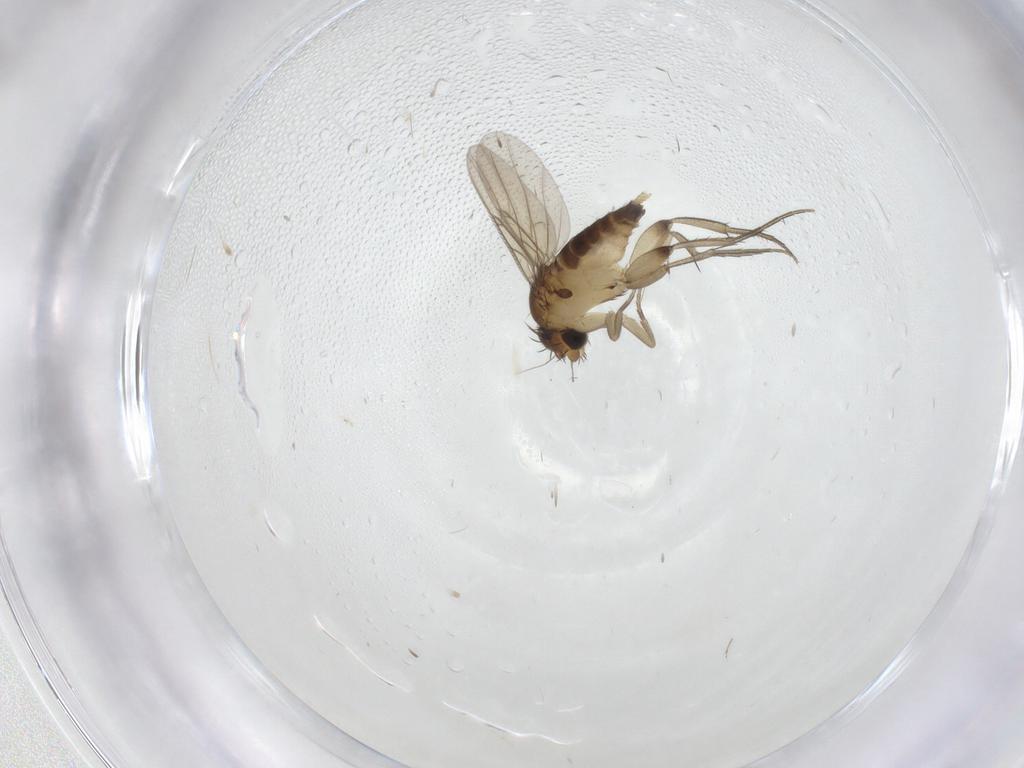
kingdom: Animalia
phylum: Arthropoda
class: Insecta
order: Diptera
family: Phoridae
